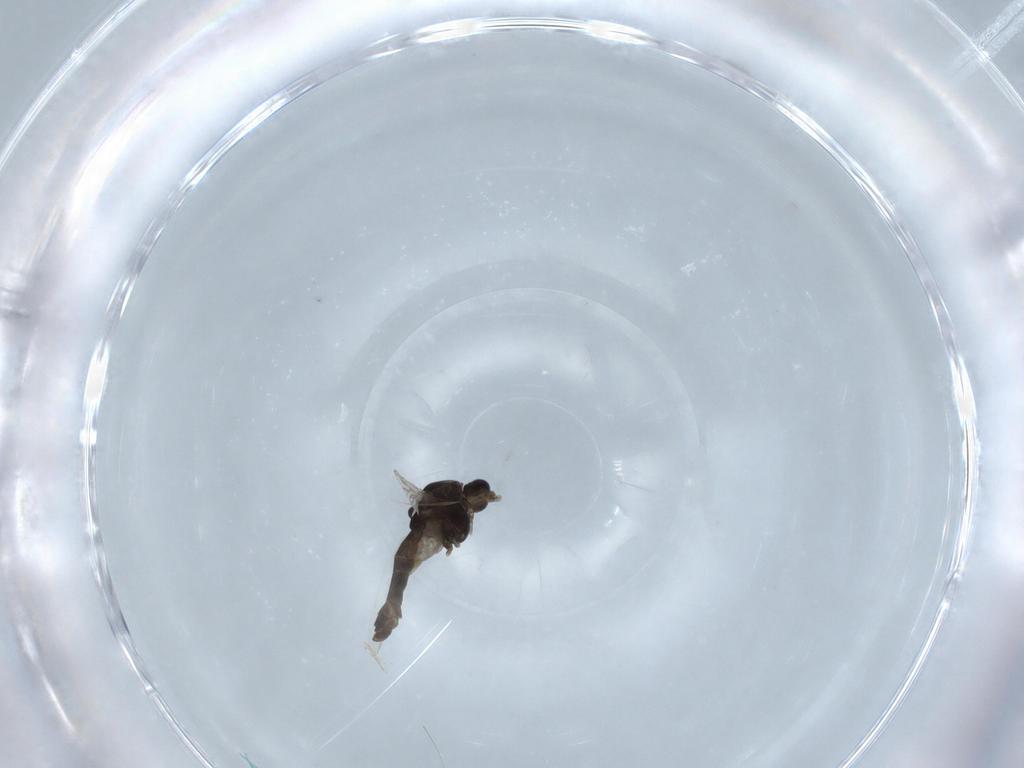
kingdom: Animalia
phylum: Arthropoda
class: Insecta
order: Diptera
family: Chironomidae
